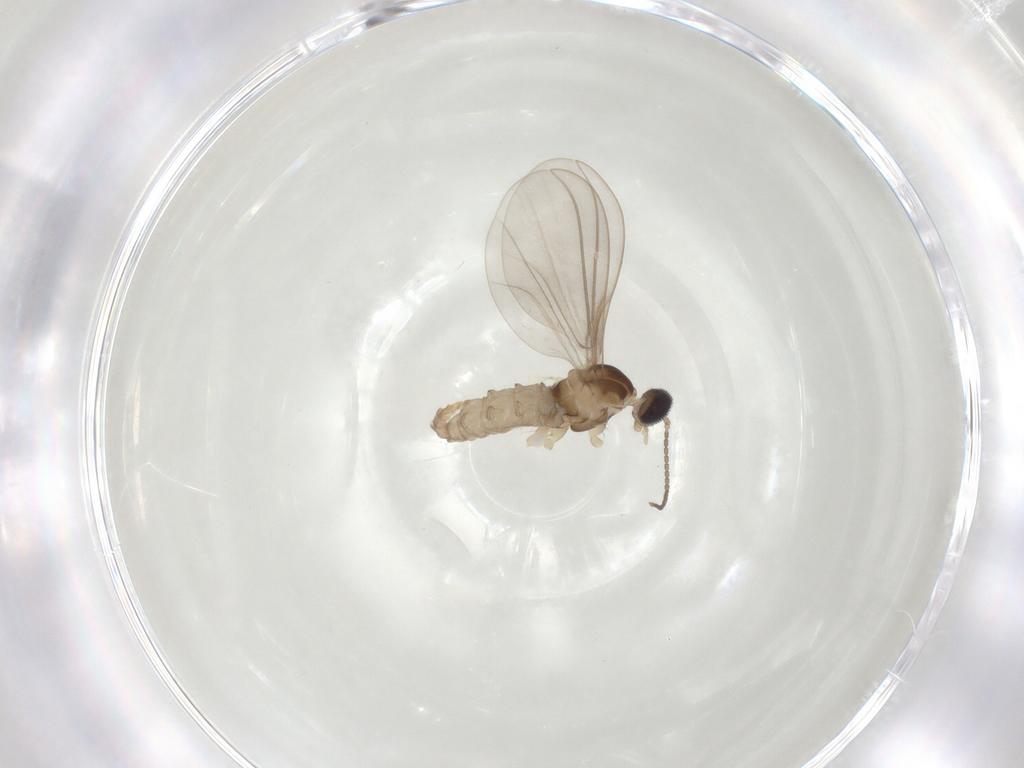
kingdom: Animalia
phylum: Arthropoda
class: Insecta
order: Diptera
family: Cecidomyiidae
